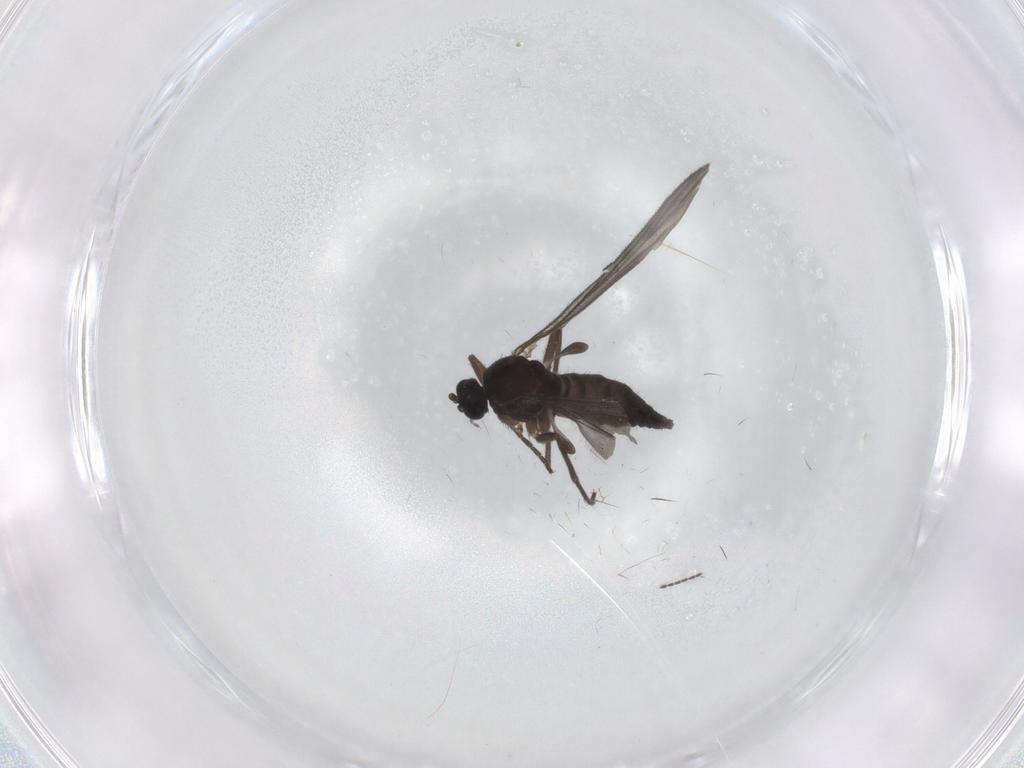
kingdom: Animalia
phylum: Arthropoda
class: Insecta
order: Diptera
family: Sciaridae
